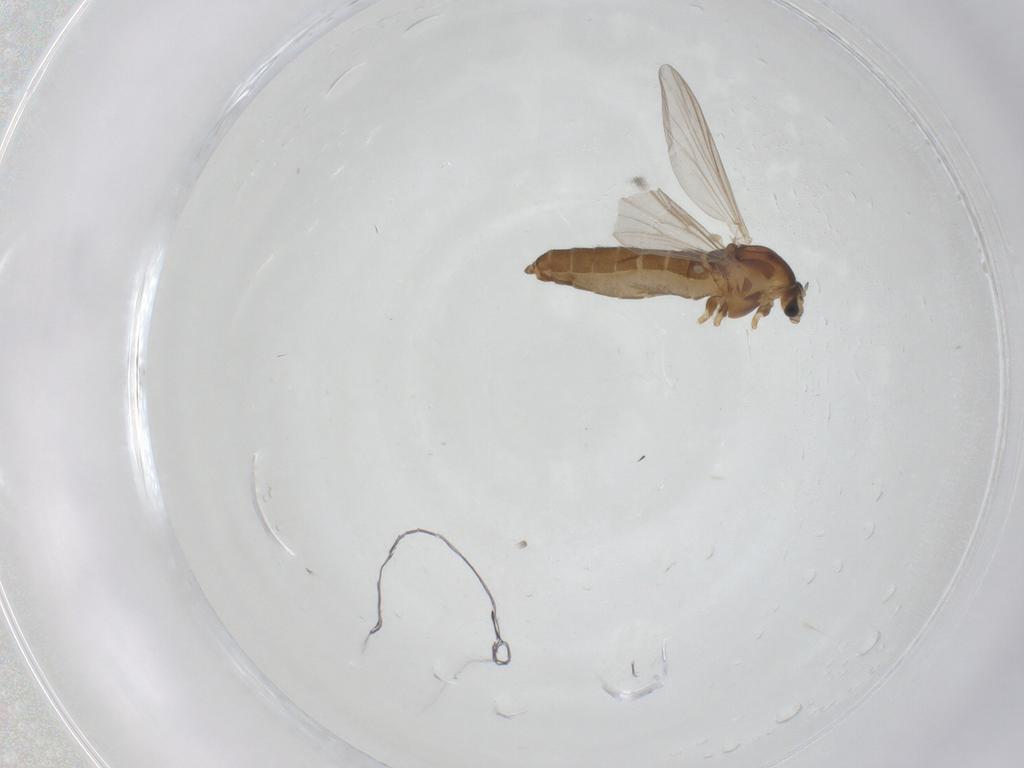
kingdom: Animalia
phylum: Arthropoda
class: Insecta
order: Diptera
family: Chironomidae
